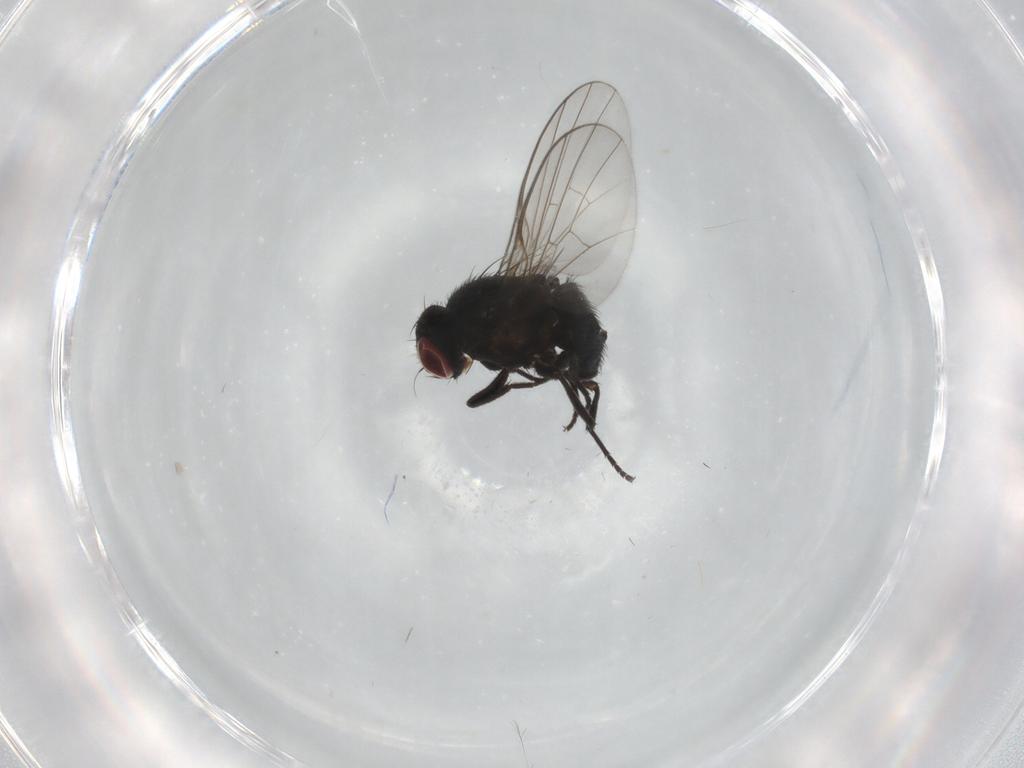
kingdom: Animalia
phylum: Arthropoda
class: Insecta
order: Diptera
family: Agromyzidae
